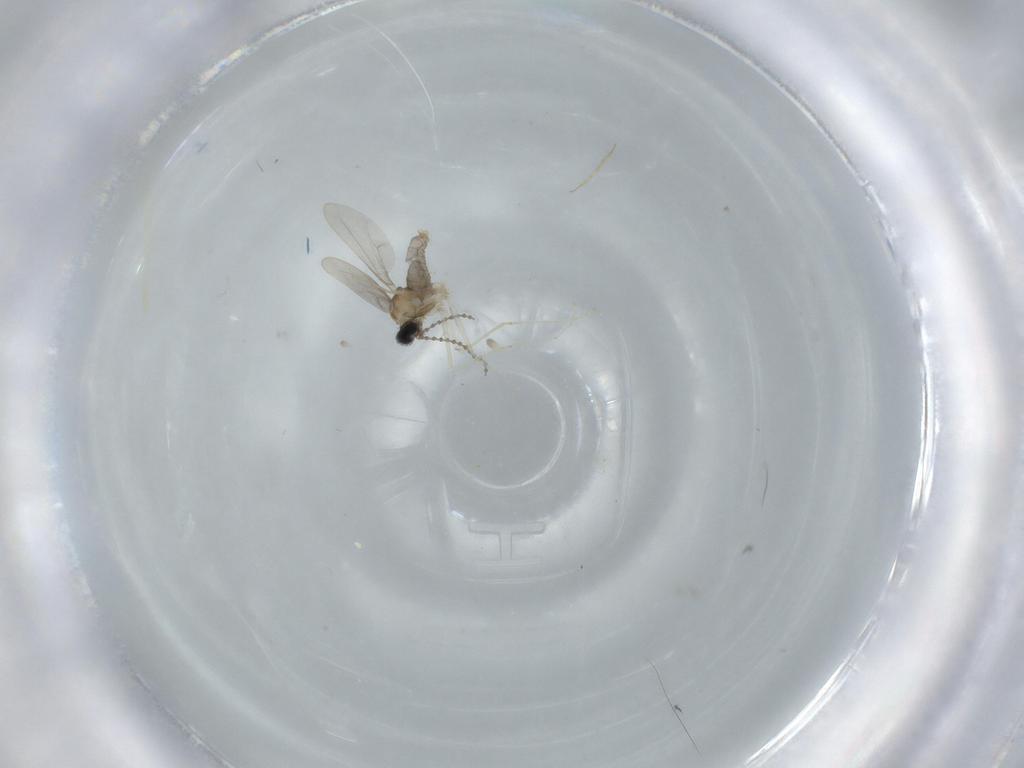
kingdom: Animalia
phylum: Arthropoda
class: Insecta
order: Diptera
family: Cecidomyiidae
